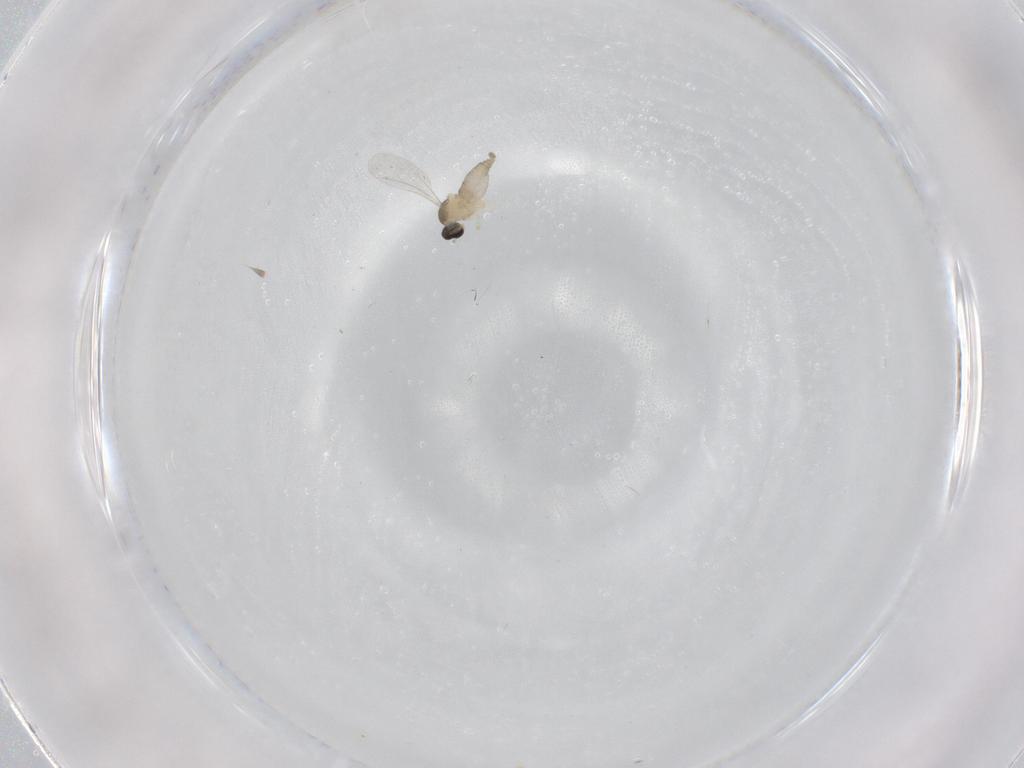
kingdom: Animalia
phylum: Arthropoda
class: Insecta
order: Diptera
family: Cecidomyiidae
